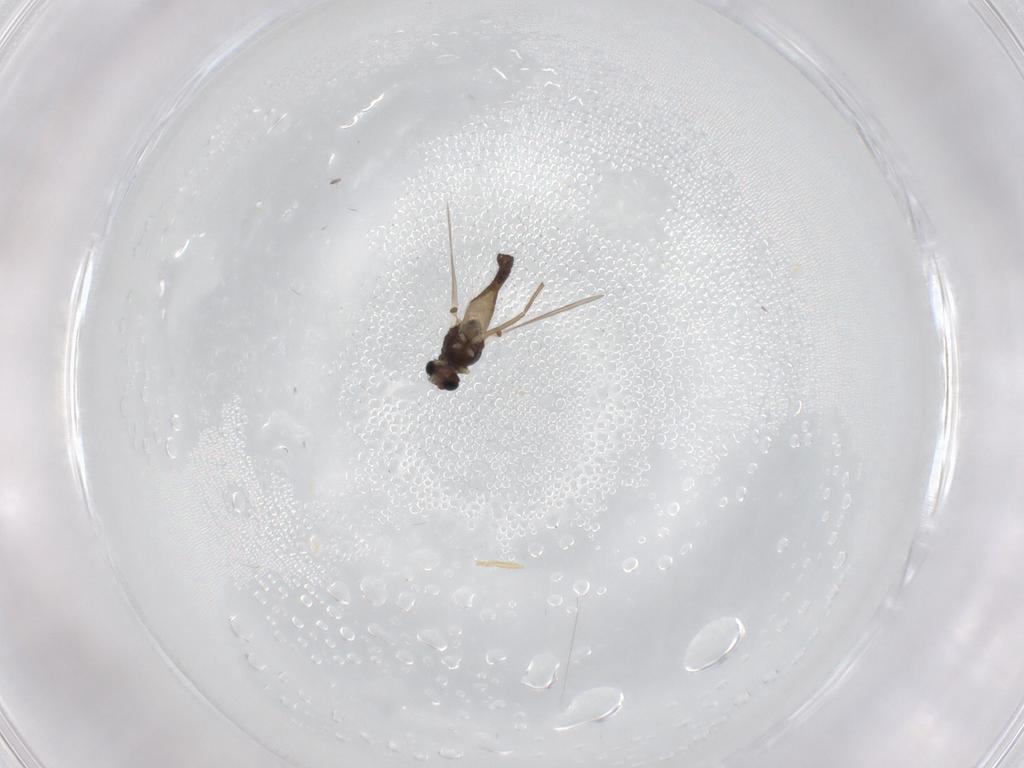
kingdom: Animalia
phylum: Arthropoda
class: Insecta
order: Diptera
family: Chironomidae
